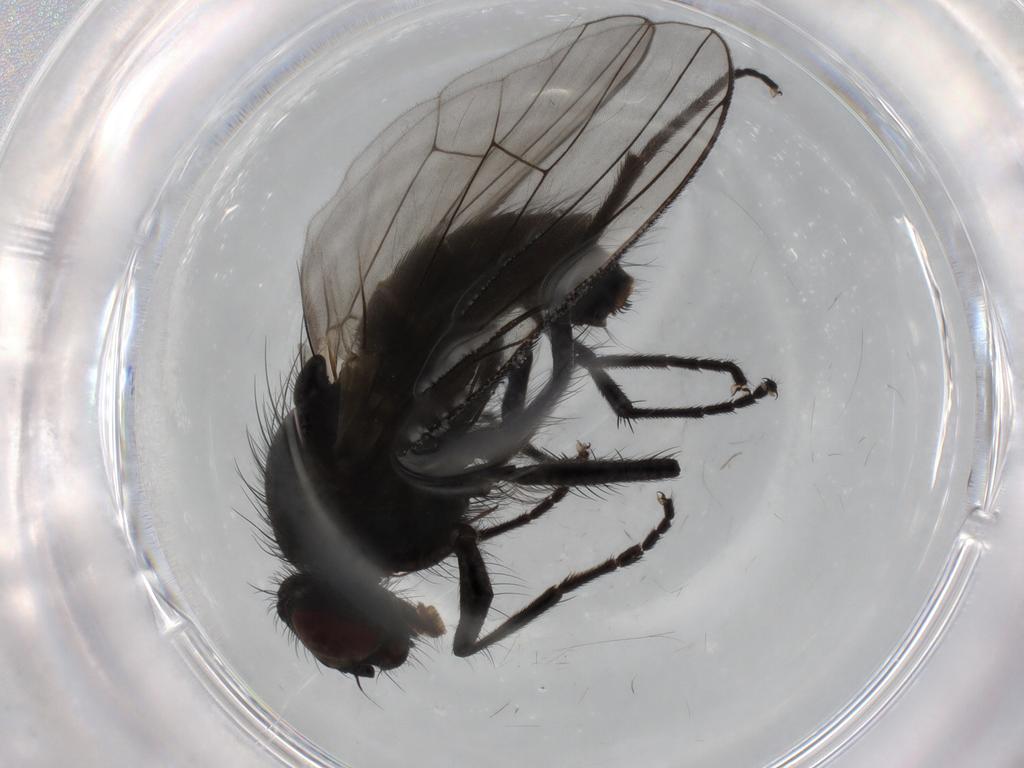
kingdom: Animalia
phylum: Arthropoda
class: Insecta
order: Diptera
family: Muscidae
